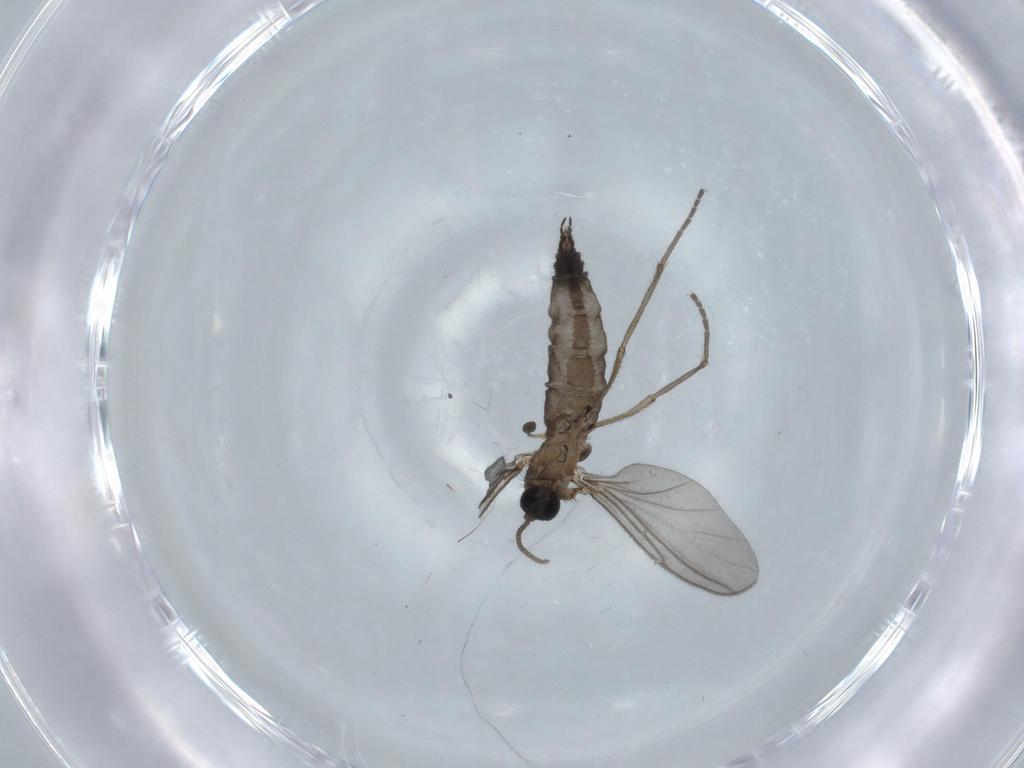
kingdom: Animalia
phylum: Arthropoda
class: Insecta
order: Diptera
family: Sciaridae
